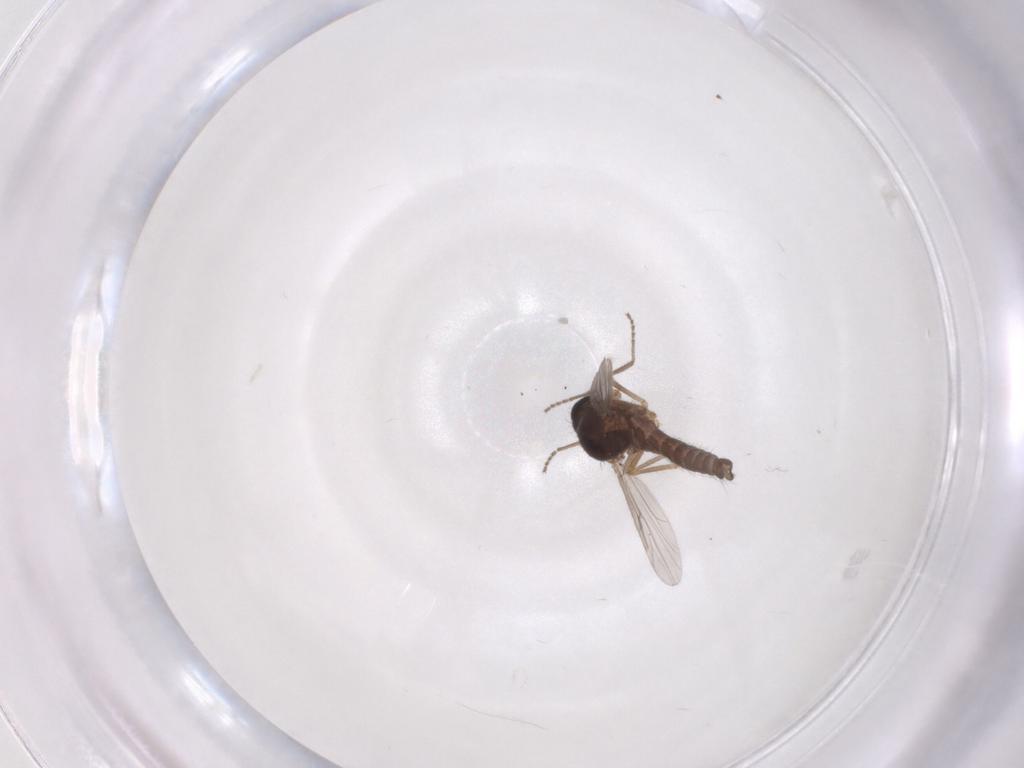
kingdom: Animalia
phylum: Arthropoda
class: Insecta
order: Diptera
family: Ceratopogonidae
